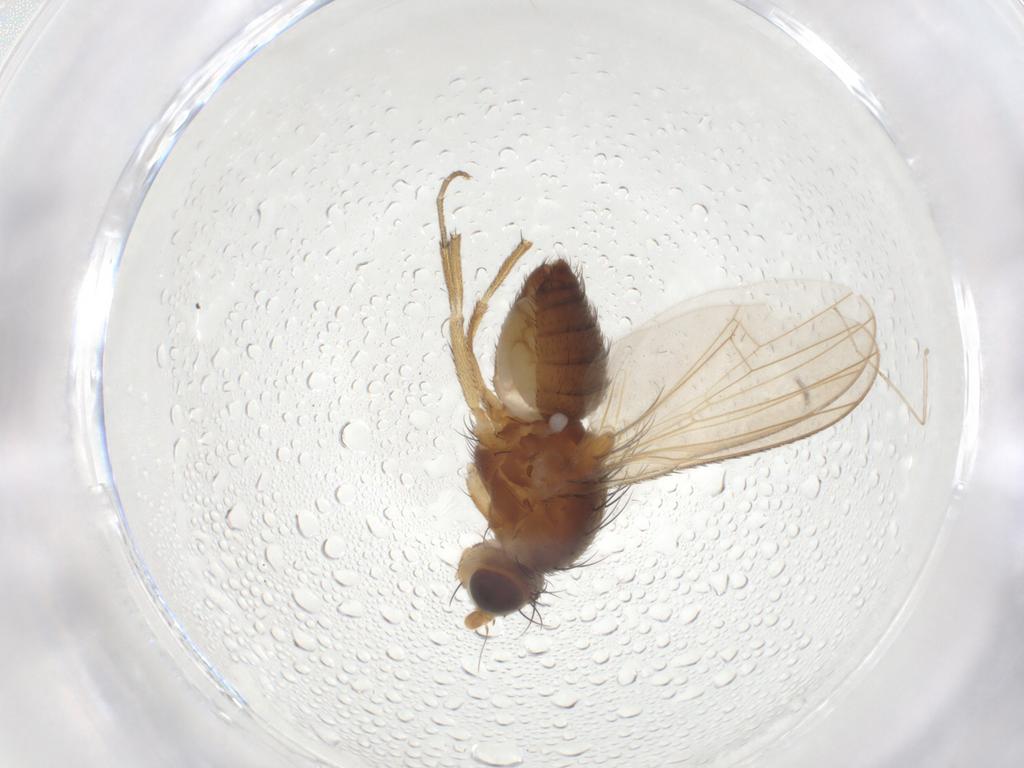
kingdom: Animalia
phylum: Arthropoda
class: Insecta
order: Diptera
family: Heleomyzidae
